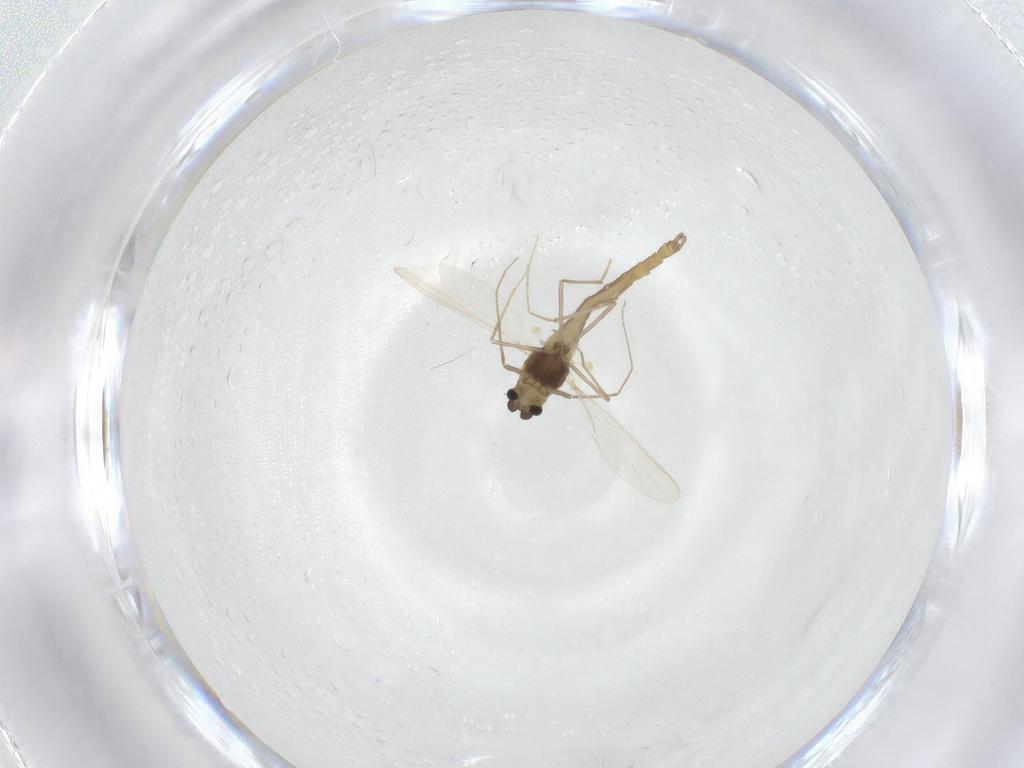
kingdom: Animalia
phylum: Arthropoda
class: Insecta
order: Diptera
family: Chironomidae
